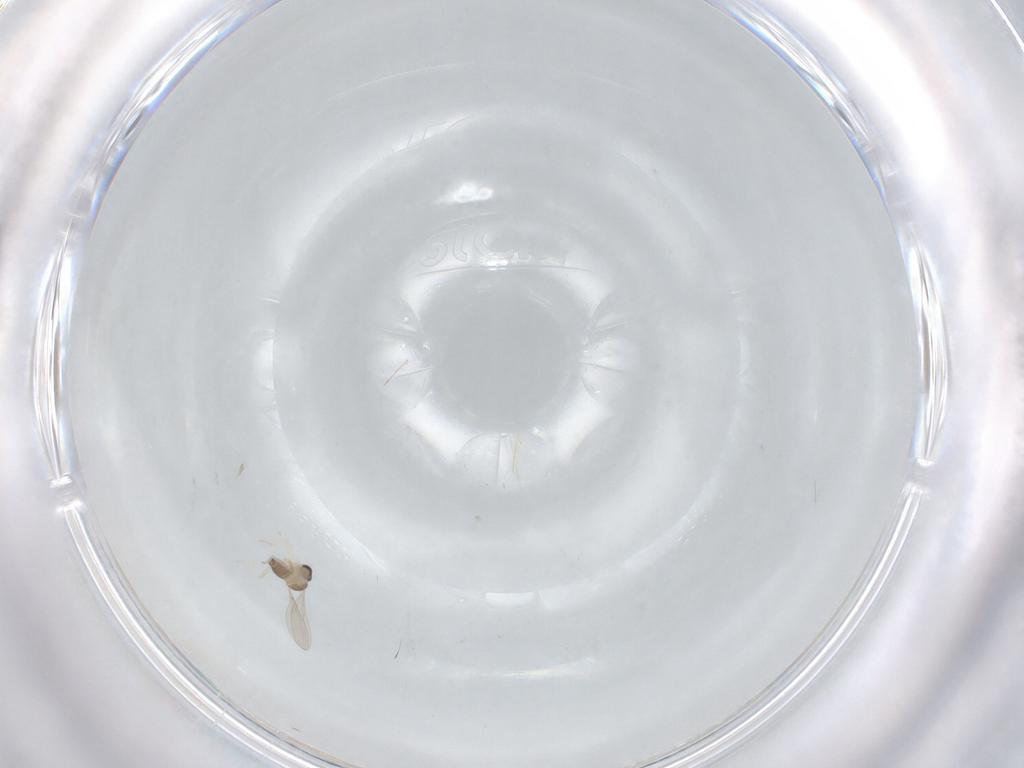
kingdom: Animalia
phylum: Arthropoda
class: Insecta
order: Diptera
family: Cecidomyiidae
